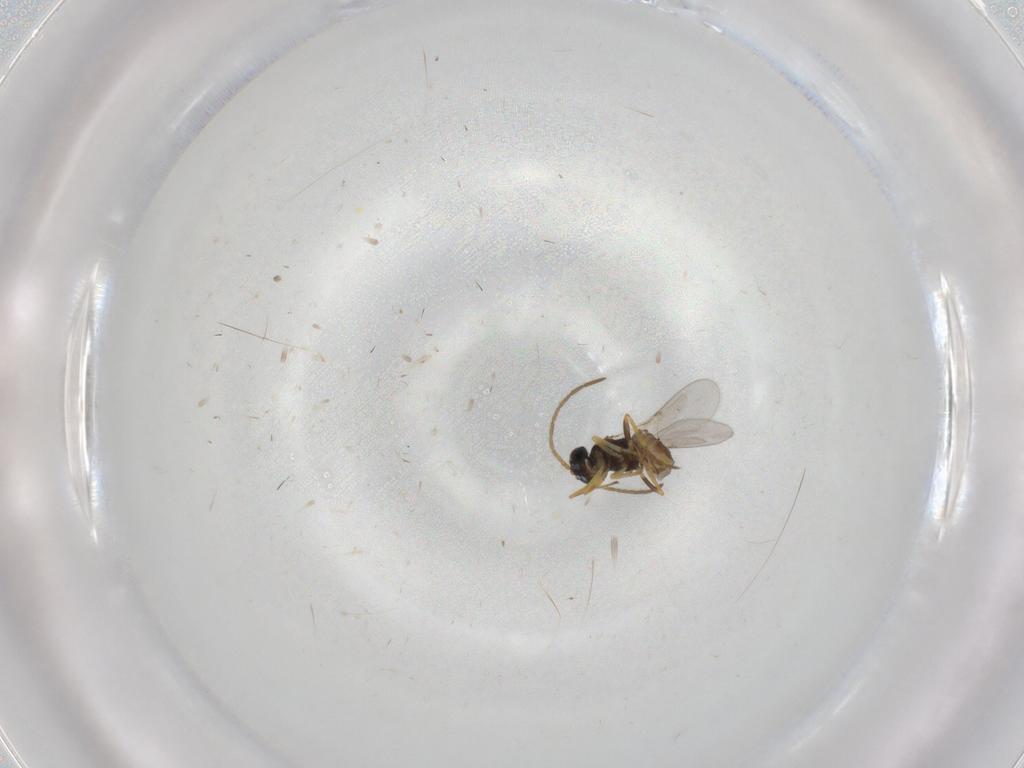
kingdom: Animalia
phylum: Arthropoda
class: Insecta
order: Hymenoptera
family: Encyrtidae
